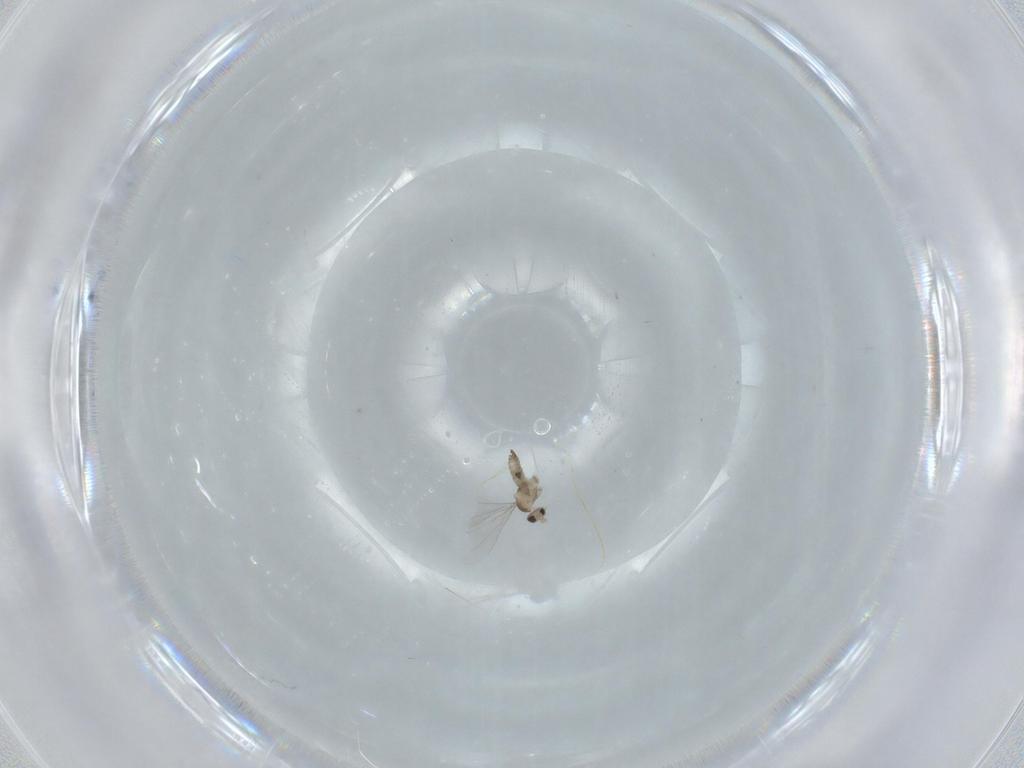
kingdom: Animalia
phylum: Arthropoda
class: Insecta
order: Diptera
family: Cecidomyiidae
